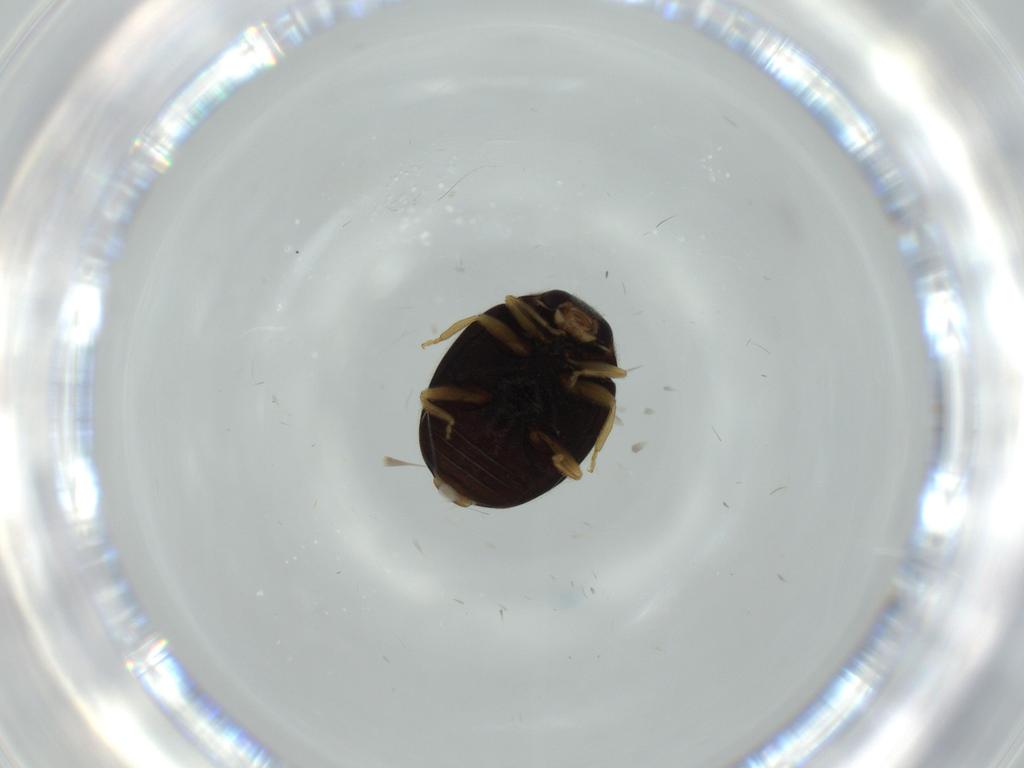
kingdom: Animalia
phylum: Arthropoda
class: Insecta
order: Coleoptera
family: Coccinellidae
